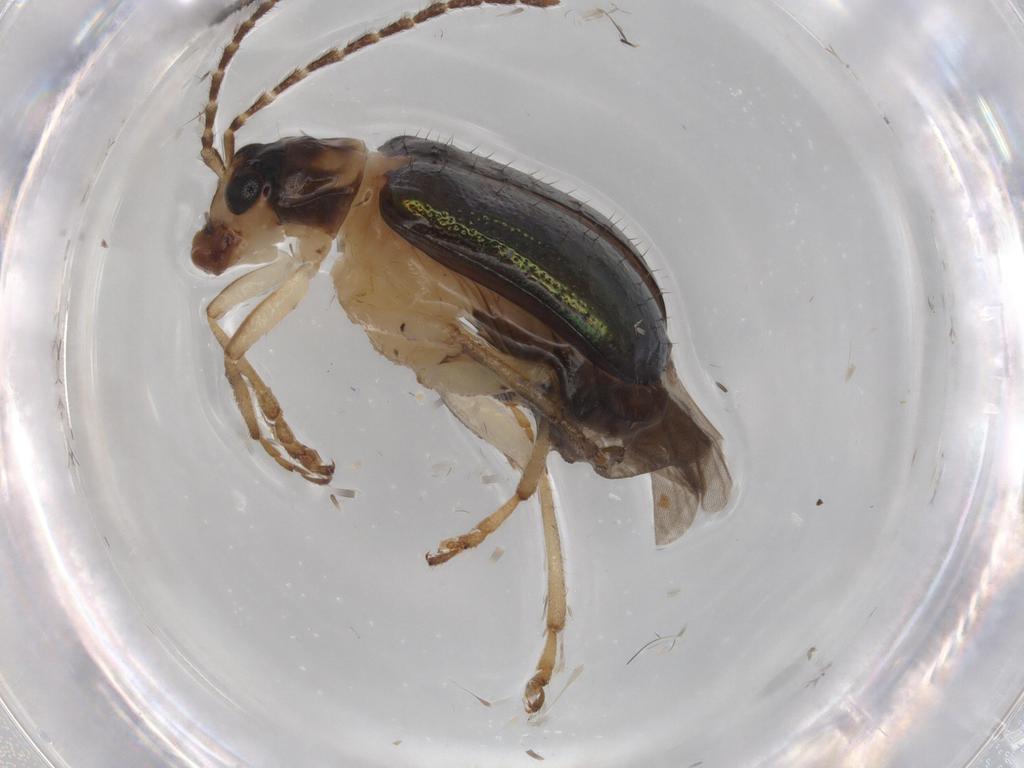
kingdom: Animalia
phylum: Arthropoda
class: Insecta
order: Coleoptera
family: Chrysomelidae
